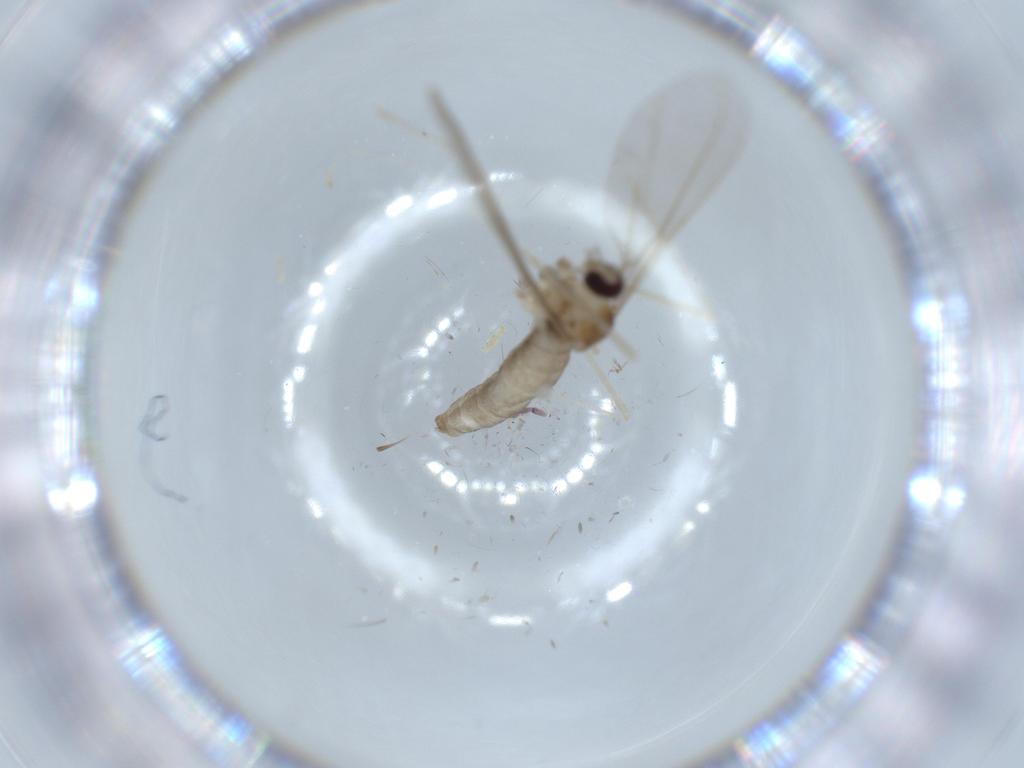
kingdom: Animalia
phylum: Arthropoda
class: Insecta
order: Diptera
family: Cecidomyiidae
